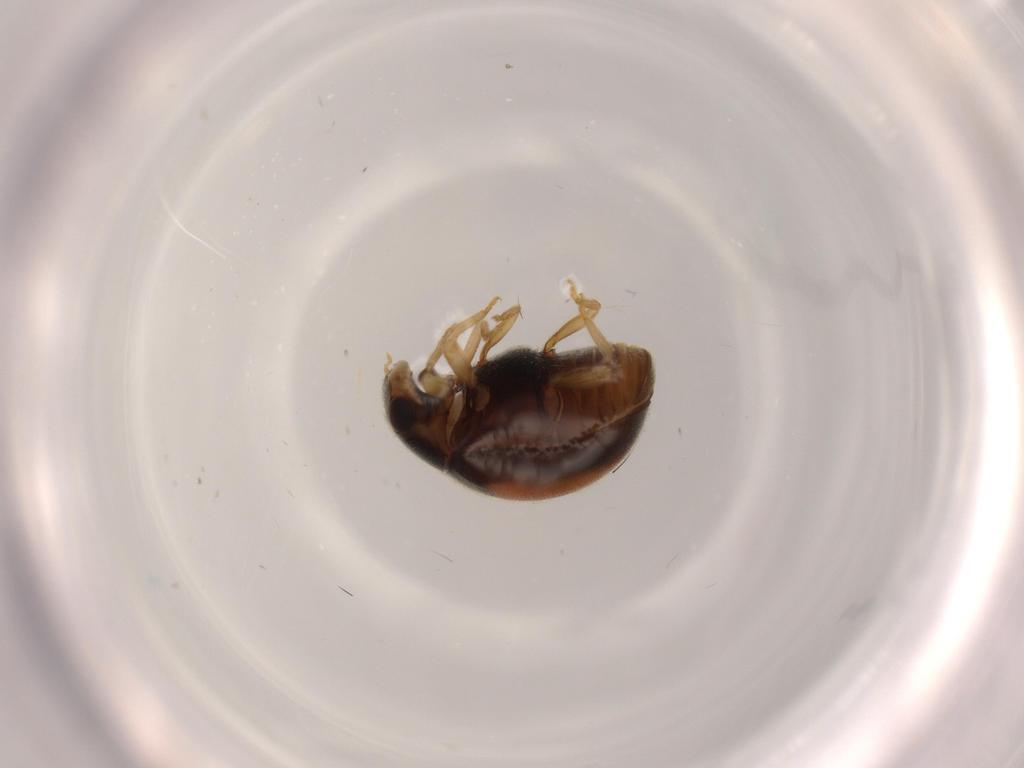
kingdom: Animalia
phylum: Arthropoda
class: Insecta
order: Coleoptera
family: Coccinellidae
